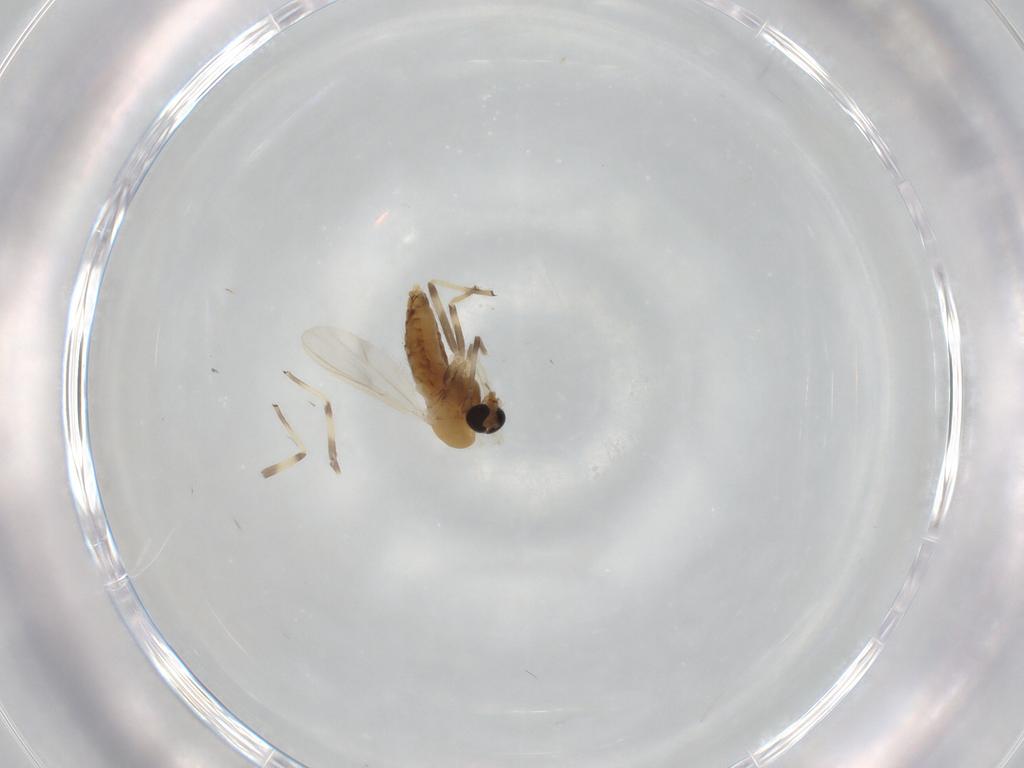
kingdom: Animalia
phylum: Arthropoda
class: Insecta
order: Diptera
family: Chironomidae
